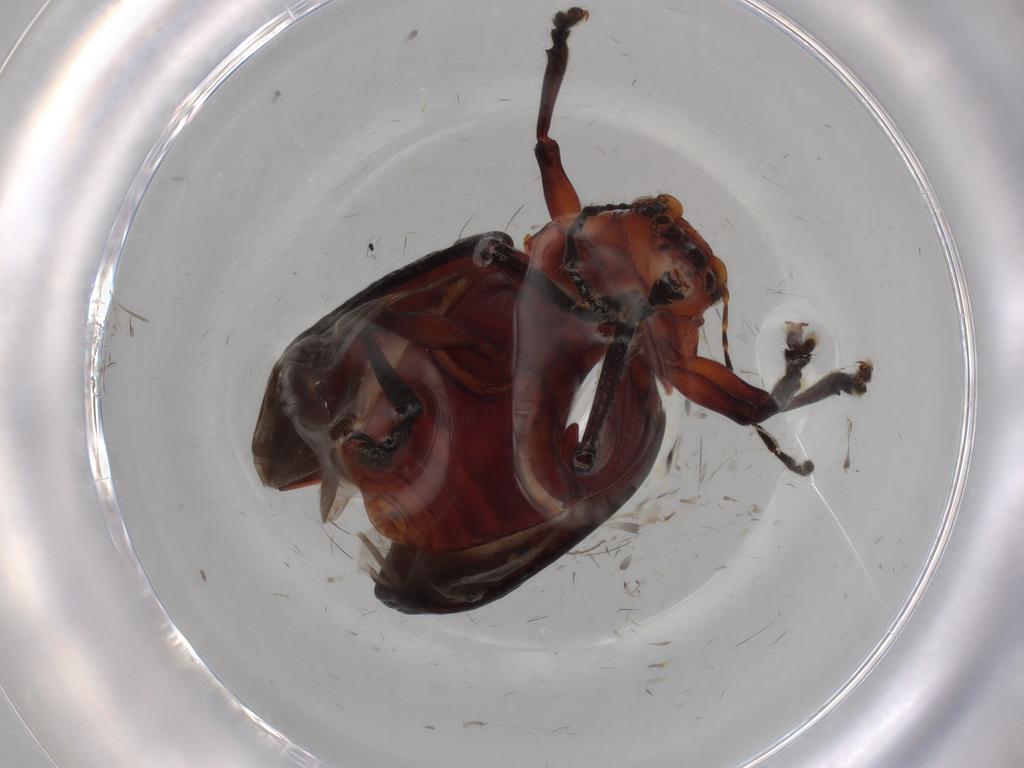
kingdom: Animalia
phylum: Arthropoda
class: Insecta
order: Coleoptera
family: Chrysomelidae
